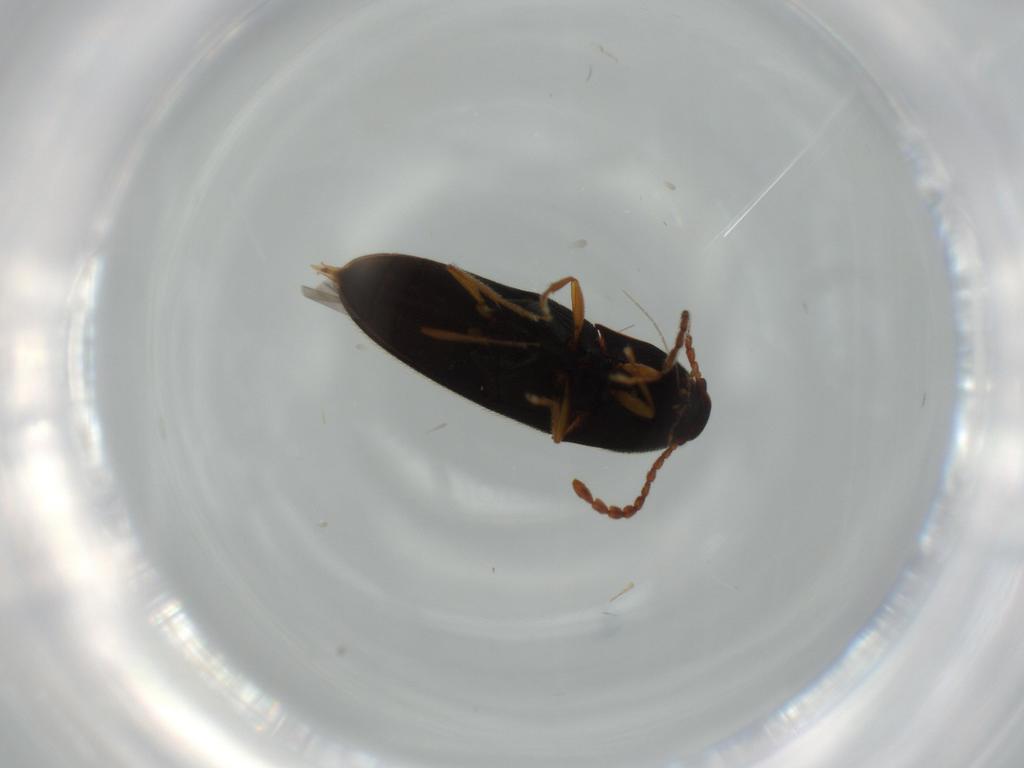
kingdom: Animalia
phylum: Arthropoda
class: Insecta
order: Coleoptera
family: Elateridae
